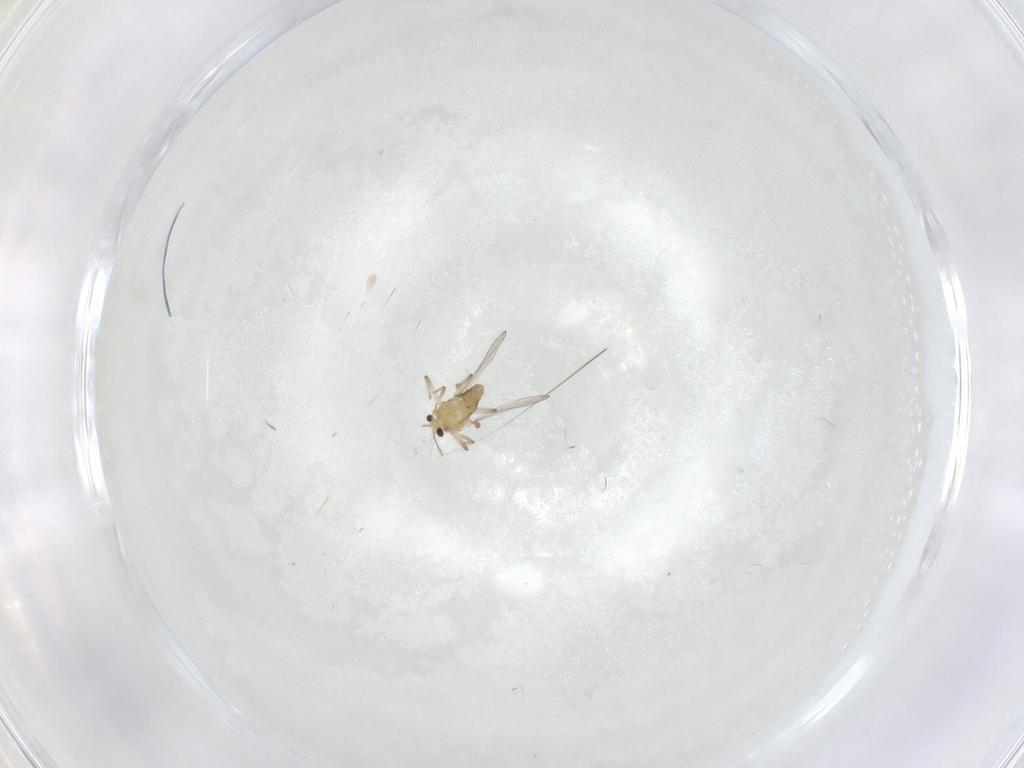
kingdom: Animalia
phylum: Arthropoda
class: Insecta
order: Diptera
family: Chironomidae
